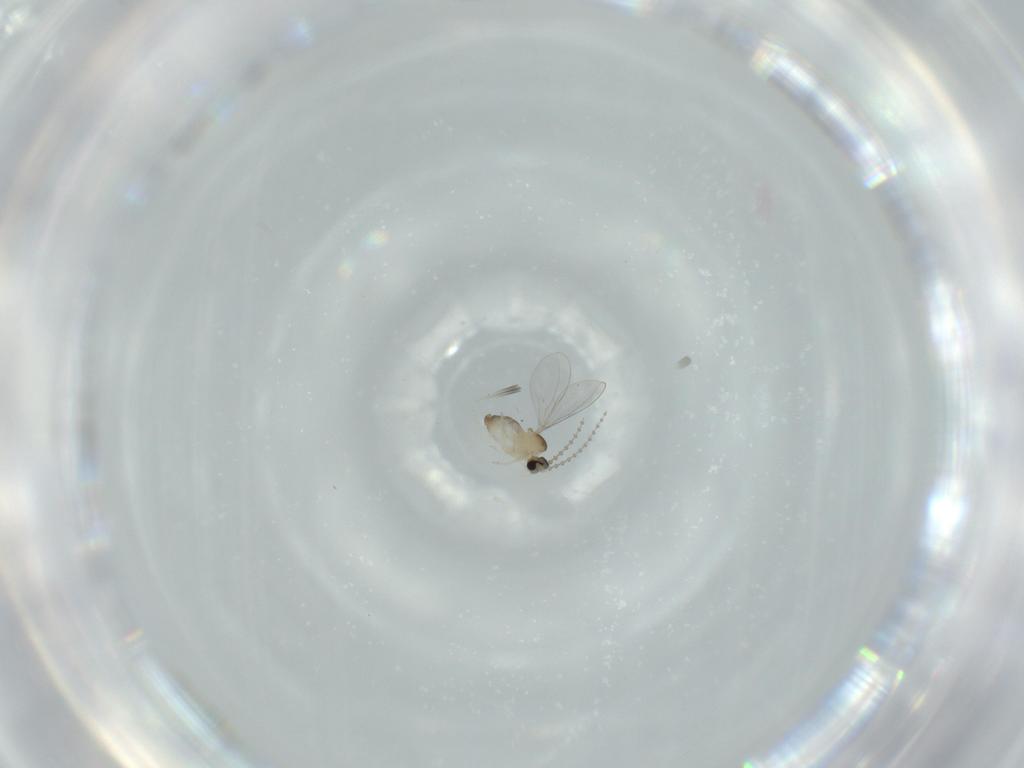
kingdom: Animalia
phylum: Arthropoda
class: Insecta
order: Diptera
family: Cecidomyiidae
